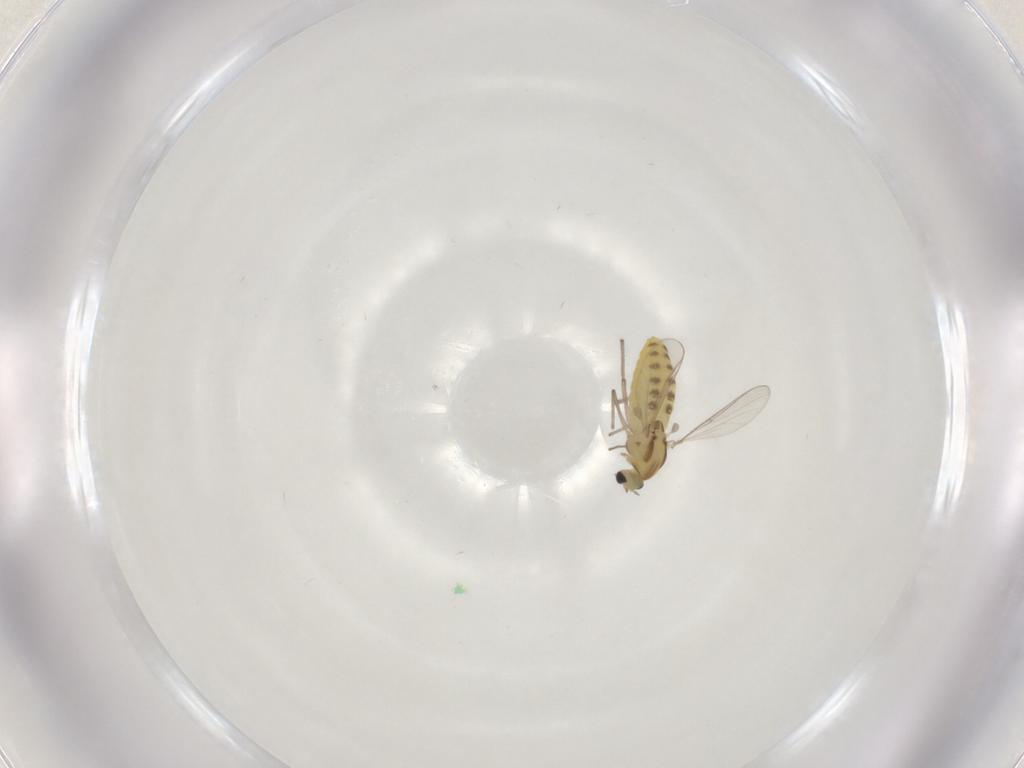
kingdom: Animalia
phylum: Arthropoda
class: Insecta
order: Diptera
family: Chironomidae
